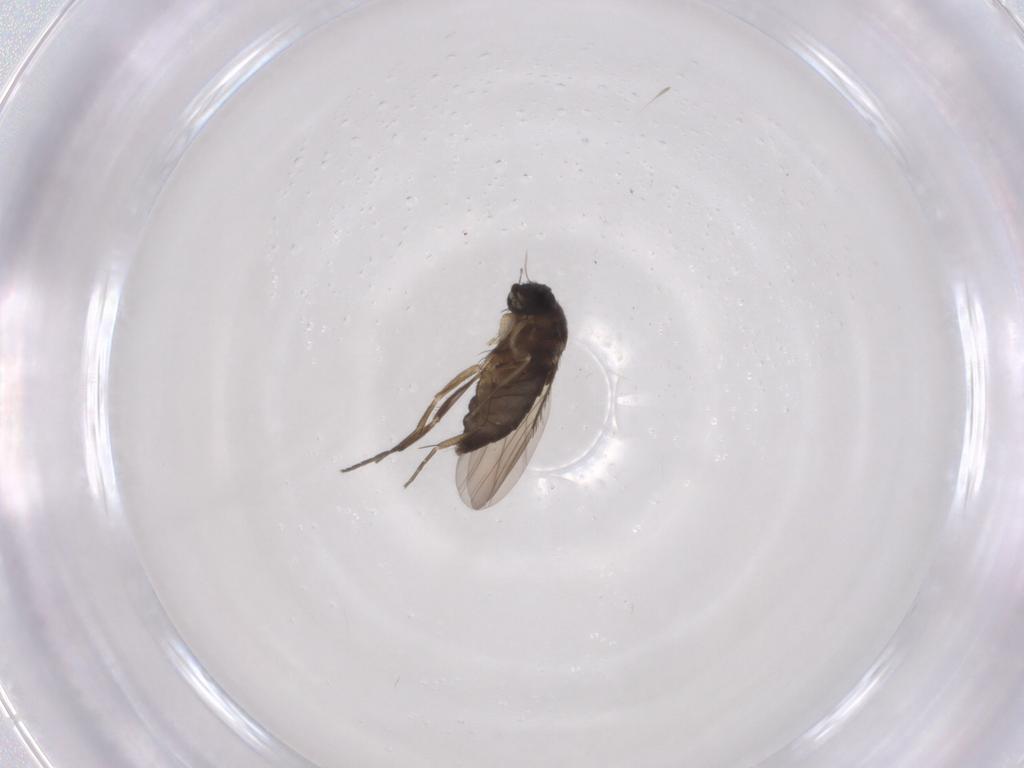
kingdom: Animalia
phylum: Arthropoda
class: Insecta
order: Diptera
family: Phoridae
